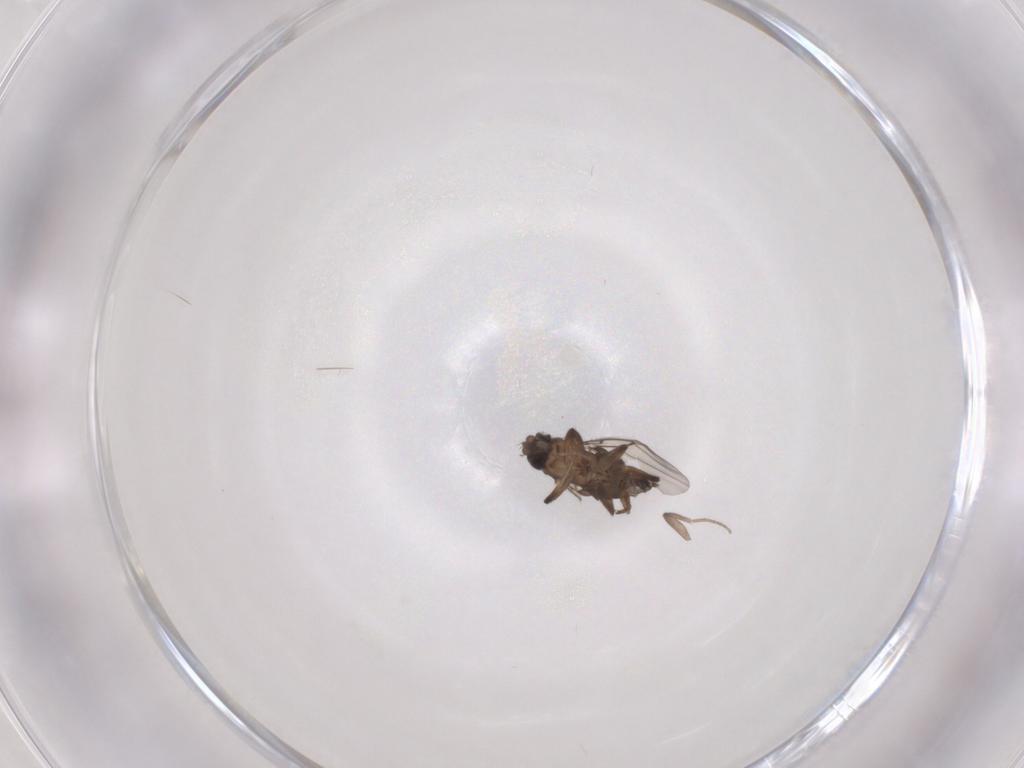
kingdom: Animalia
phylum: Arthropoda
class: Insecta
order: Diptera
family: Phoridae
